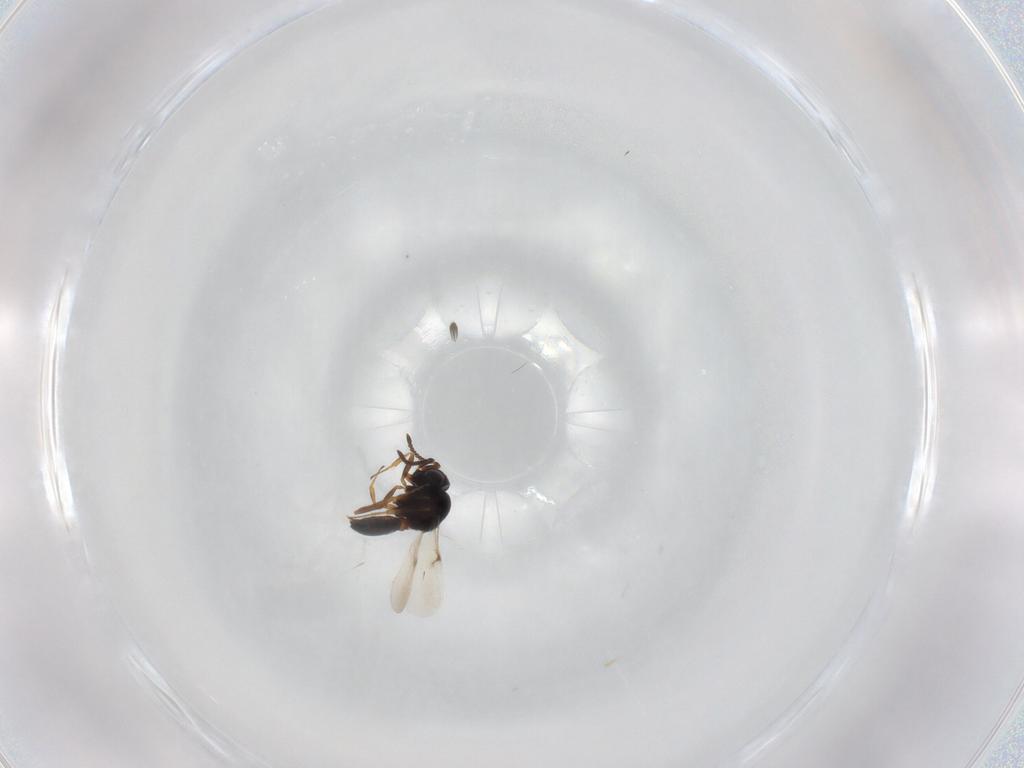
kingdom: Animalia
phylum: Arthropoda
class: Insecta
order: Hymenoptera
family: Scelionidae
